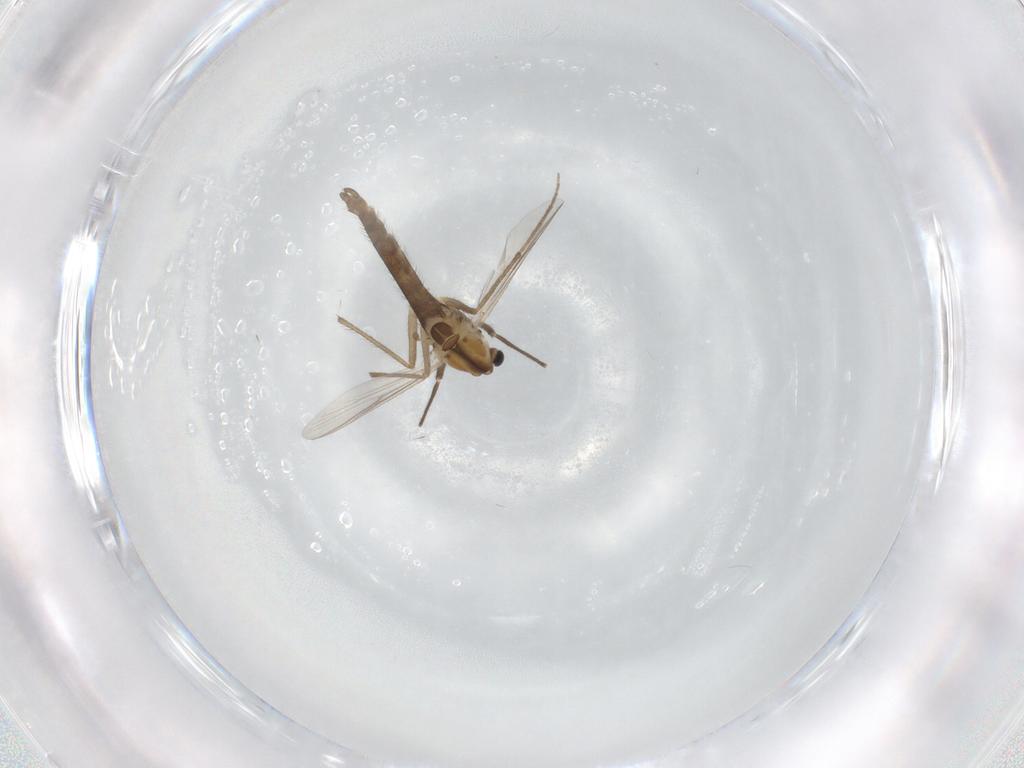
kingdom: Animalia
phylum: Arthropoda
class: Insecta
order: Diptera
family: Chironomidae
